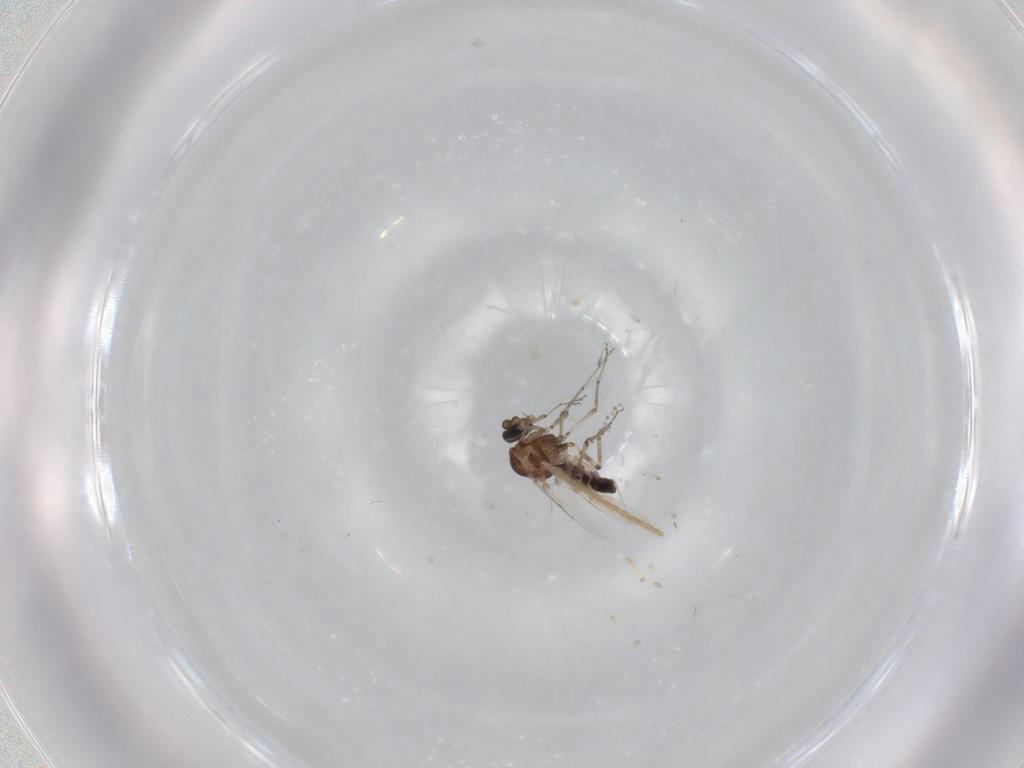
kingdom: Animalia
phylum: Arthropoda
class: Insecta
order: Diptera
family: Ceratopogonidae
